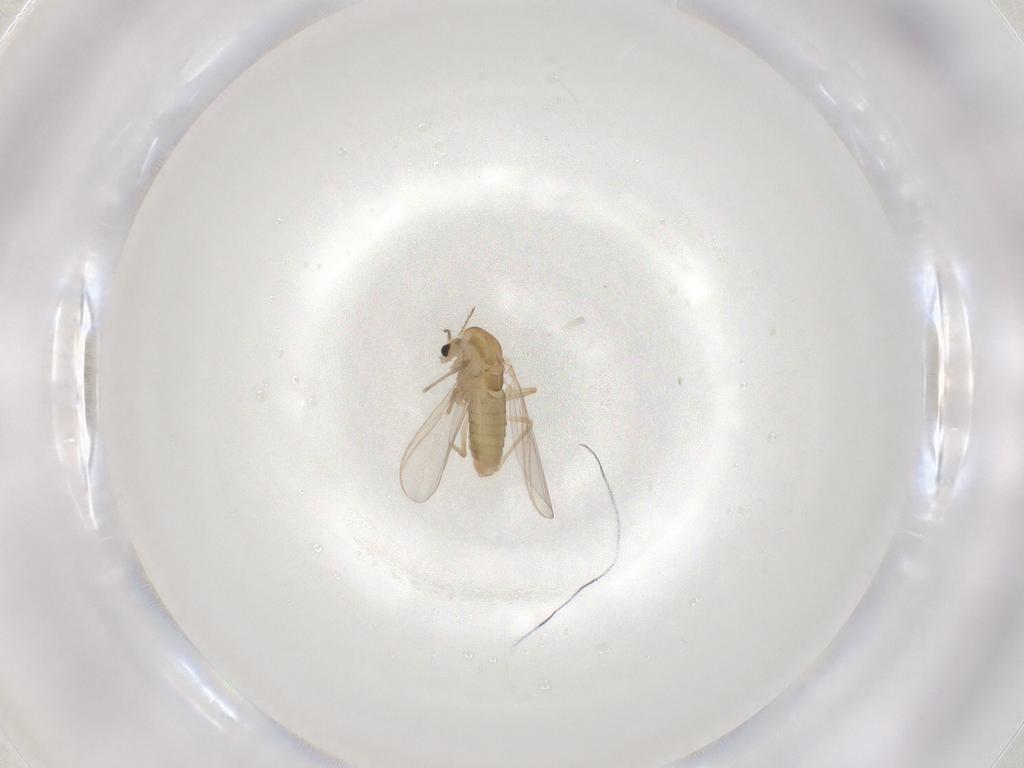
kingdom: Animalia
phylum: Arthropoda
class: Insecta
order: Diptera
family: Chironomidae
